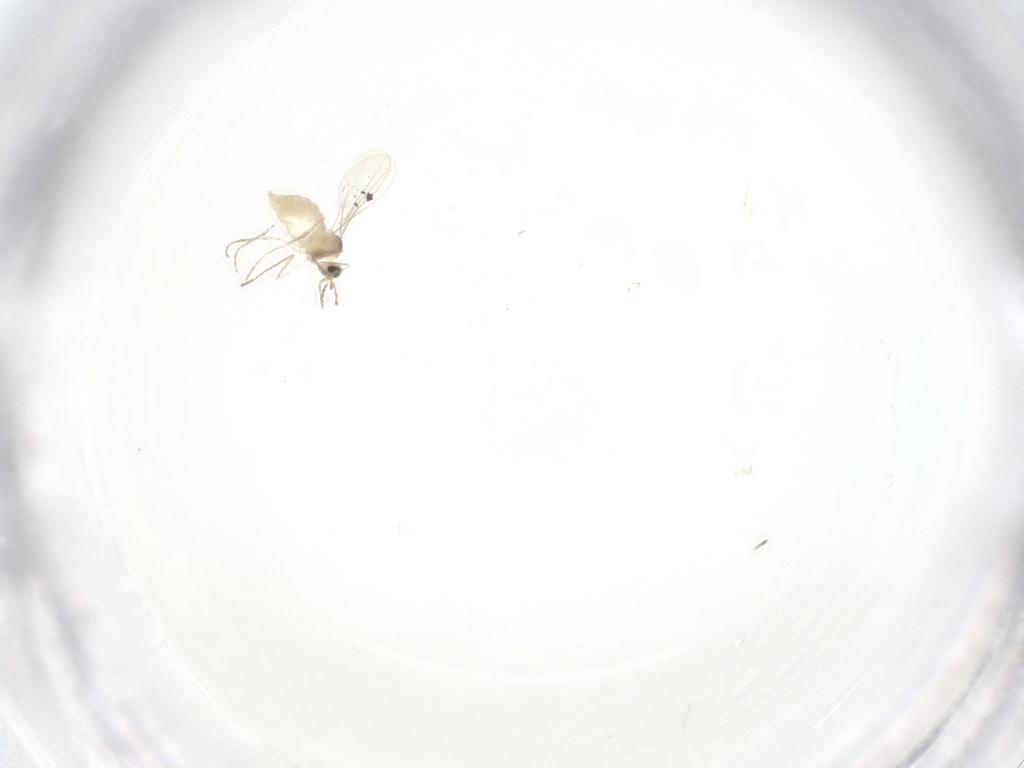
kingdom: Animalia
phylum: Arthropoda
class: Insecta
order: Diptera
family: Cecidomyiidae
